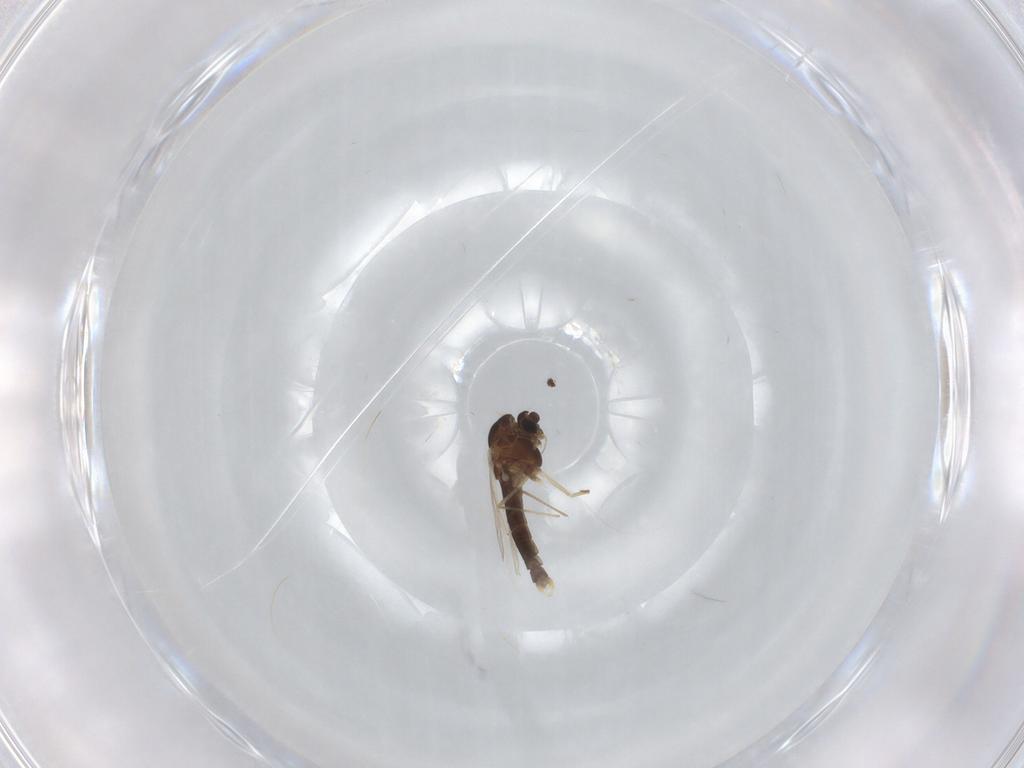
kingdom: Animalia
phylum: Arthropoda
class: Insecta
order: Diptera
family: Chironomidae
